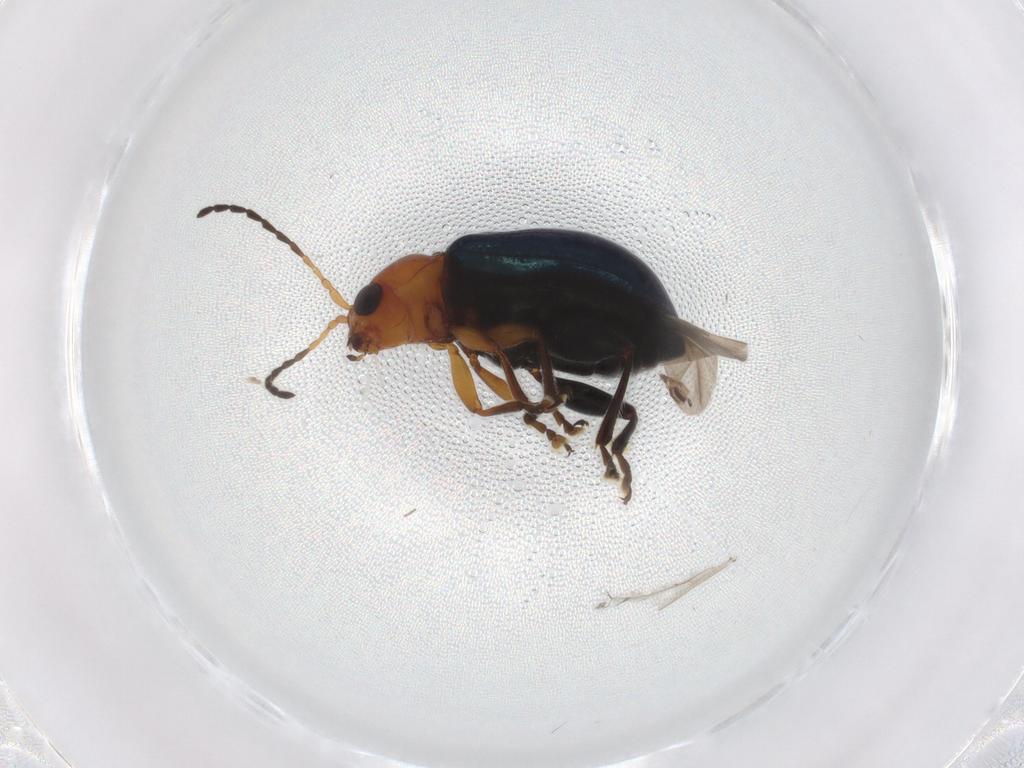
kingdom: Animalia
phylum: Arthropoda
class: Insecta
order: Coleoptera
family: Chrysomelidae
